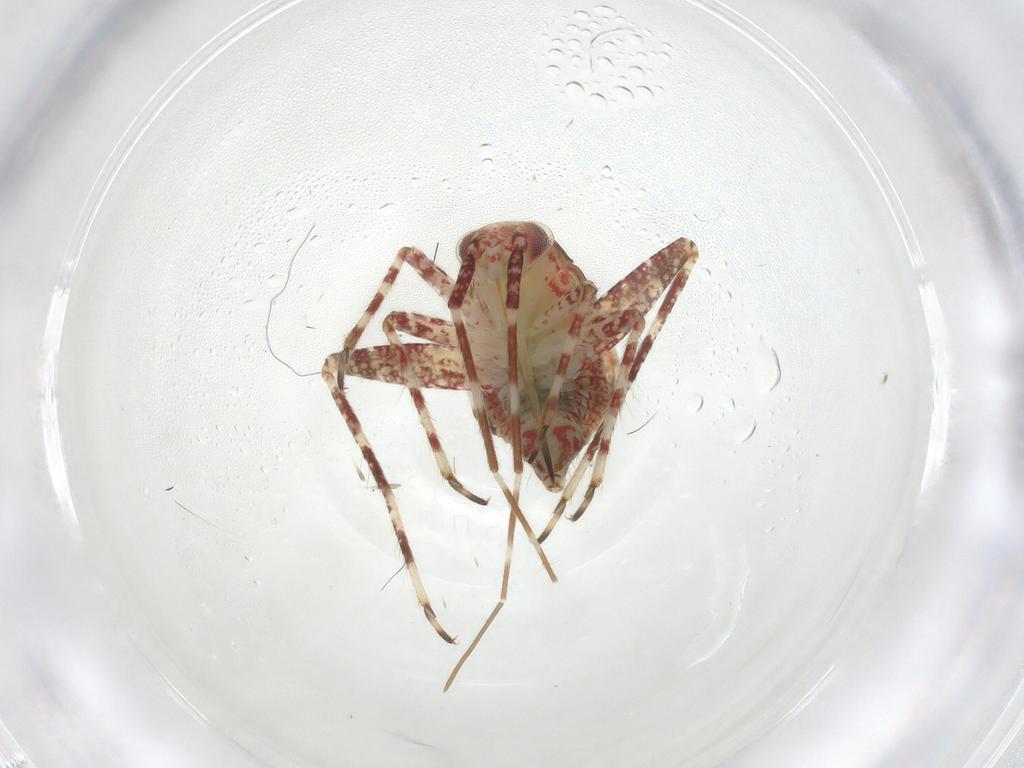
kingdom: Animalia
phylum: Arthropoda
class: Insecta
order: Hemiptera
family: Miridae
